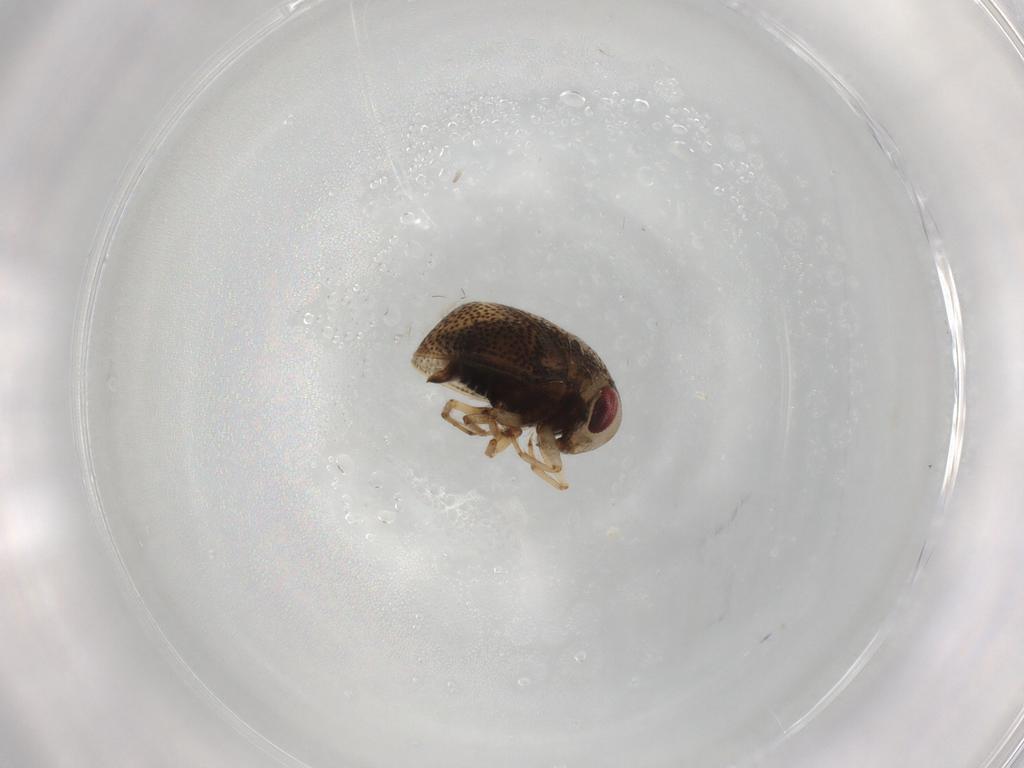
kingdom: Animalia
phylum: Arthropoda
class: Insecta
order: Hemiptera
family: Pleidae
